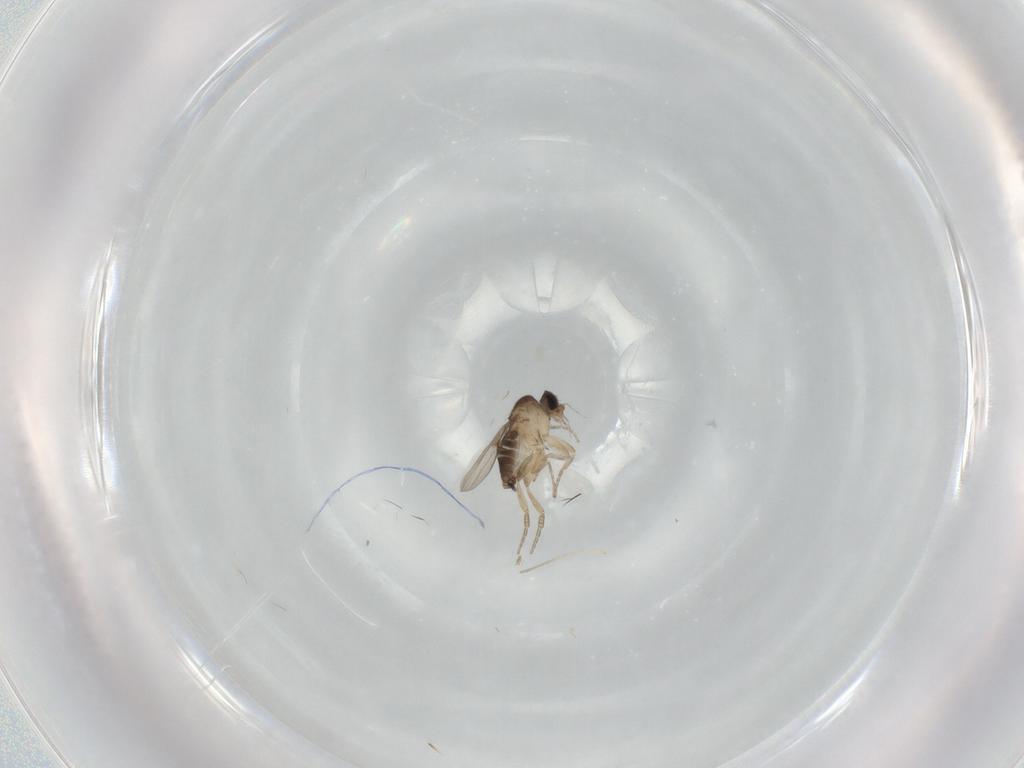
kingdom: Animalia
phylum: Arthropoda
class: Insecta
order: Diptera
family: Phoridae
